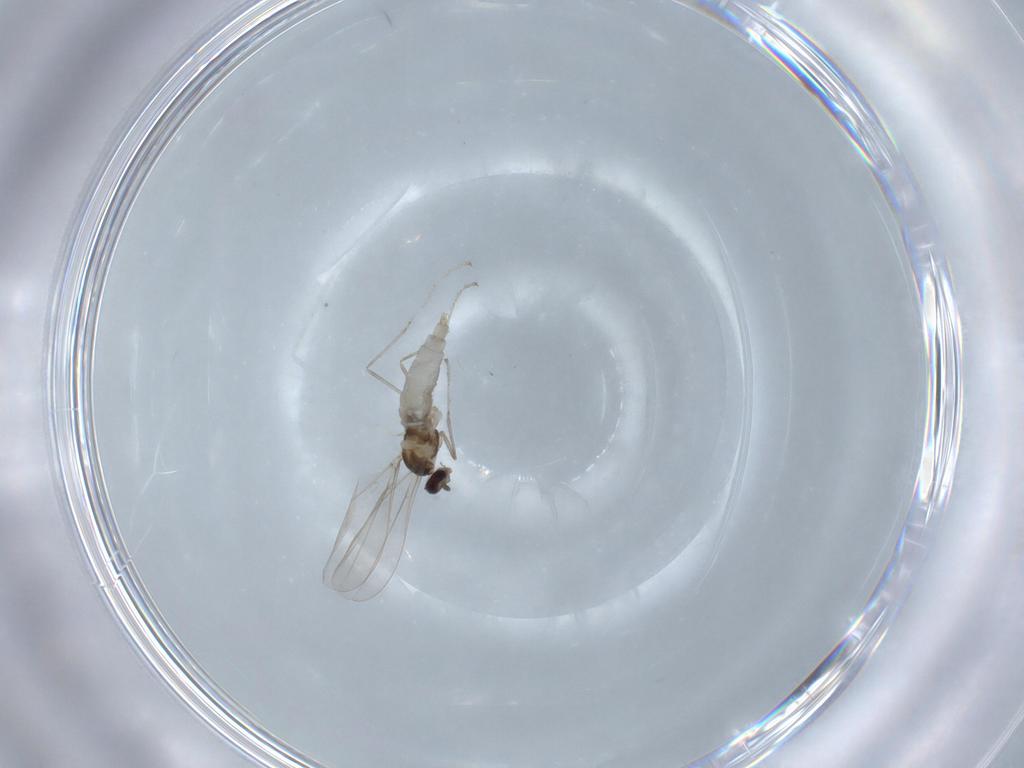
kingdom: Animalia
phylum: Arthropoda
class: Insecta
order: Diptera
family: Cecidomyiidae
